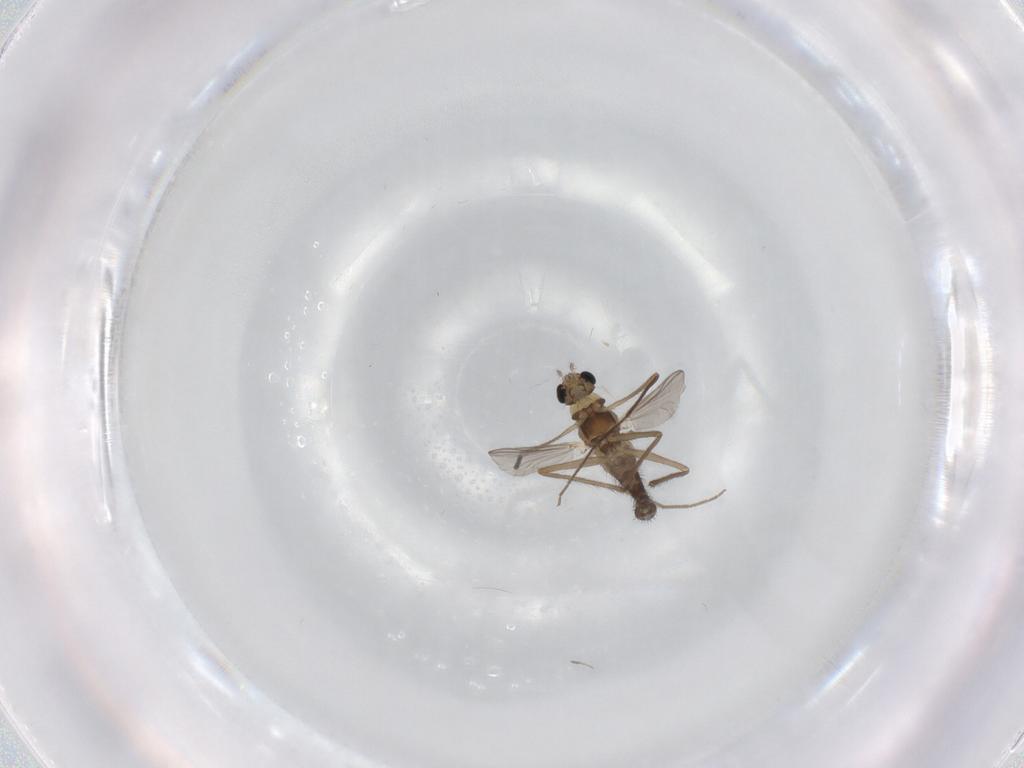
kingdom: Animalia
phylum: Arthropoda
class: Insecta
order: Diptera
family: Chironomidae
